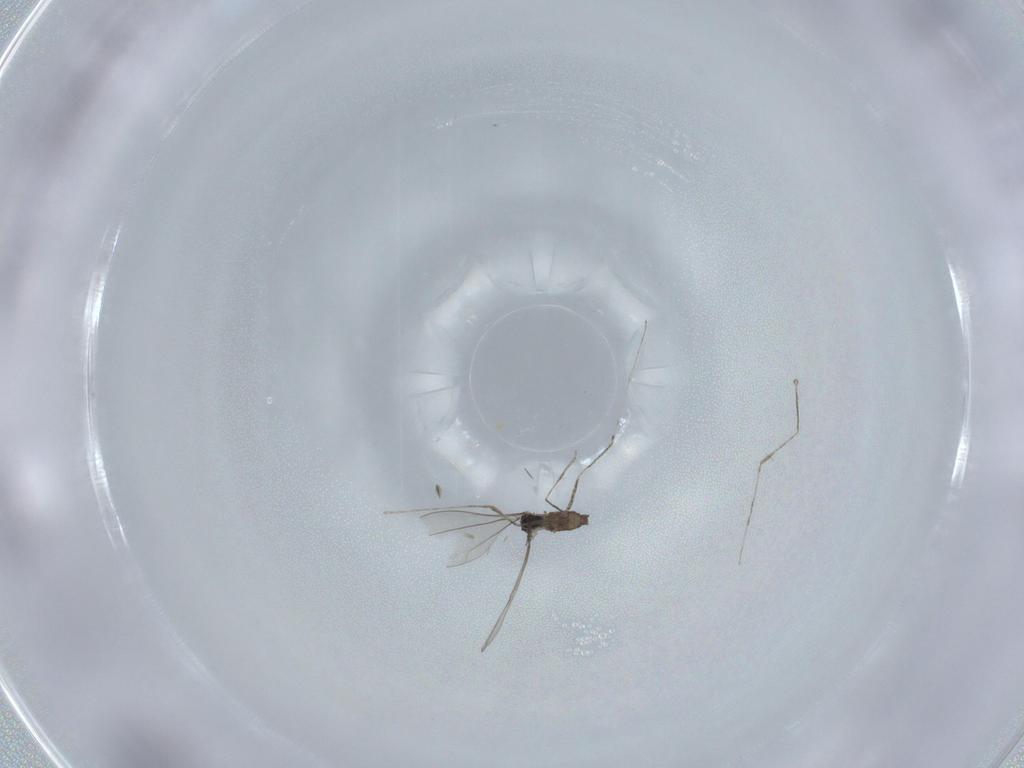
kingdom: Animalia
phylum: Arthropoda
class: Insecta
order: Diptera
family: Cecidomyiidae
